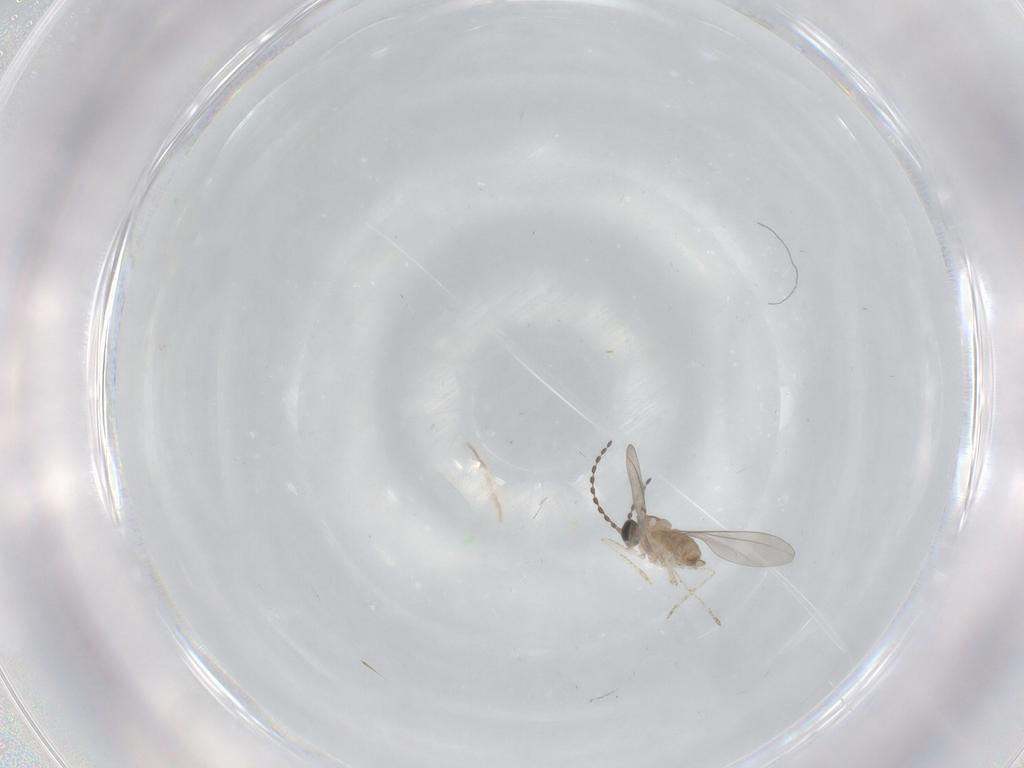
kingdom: Animalia
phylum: Arthropoda
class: Insecta
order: Diptera
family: Cecidomyiidae
